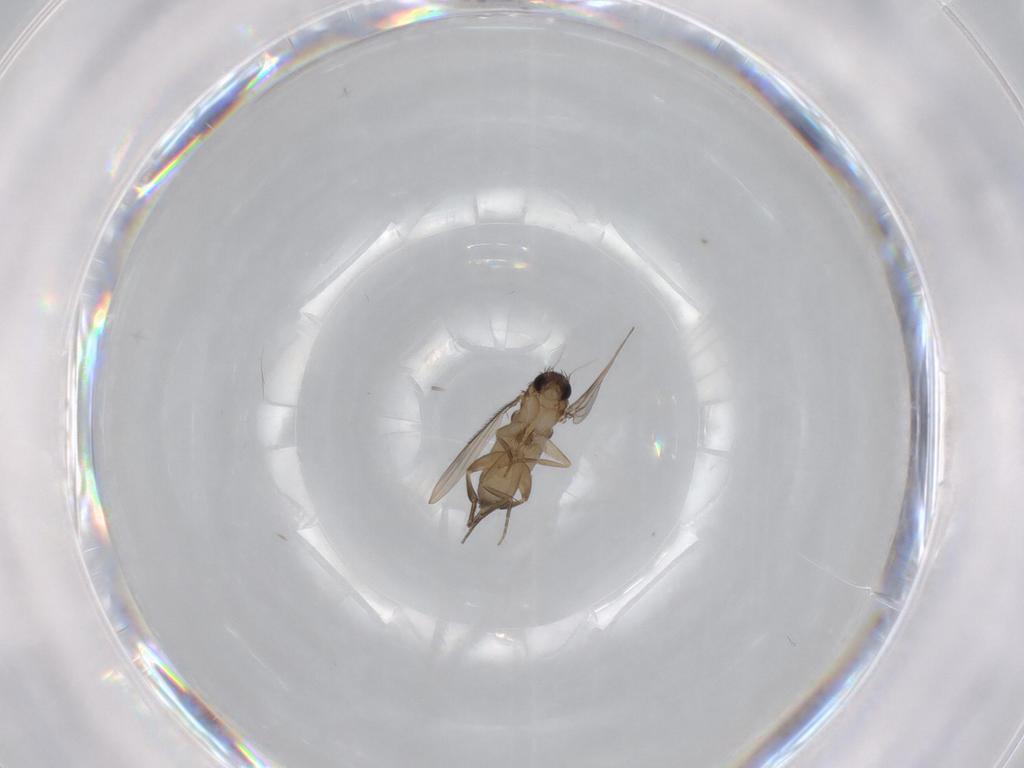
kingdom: Animalia
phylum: Arthropoda
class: Insecta
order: Diptera
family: Phoridae
